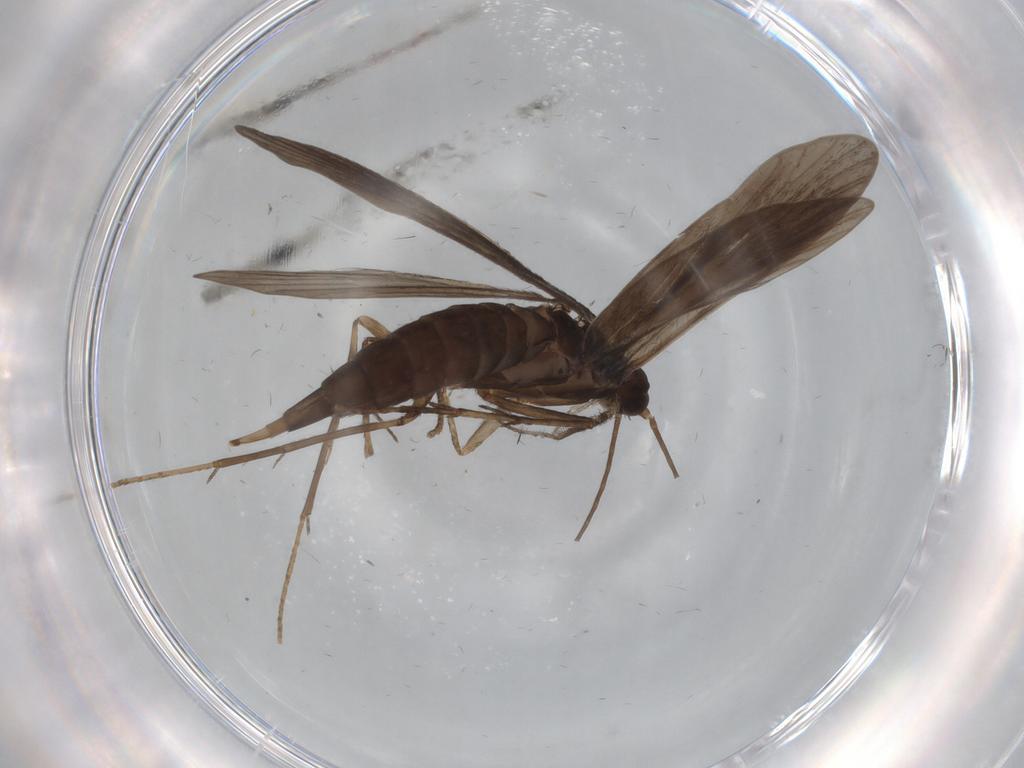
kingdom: Animalia
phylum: Arthropoda
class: Insecta
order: Trichoptera
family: Xiphocentronidae
